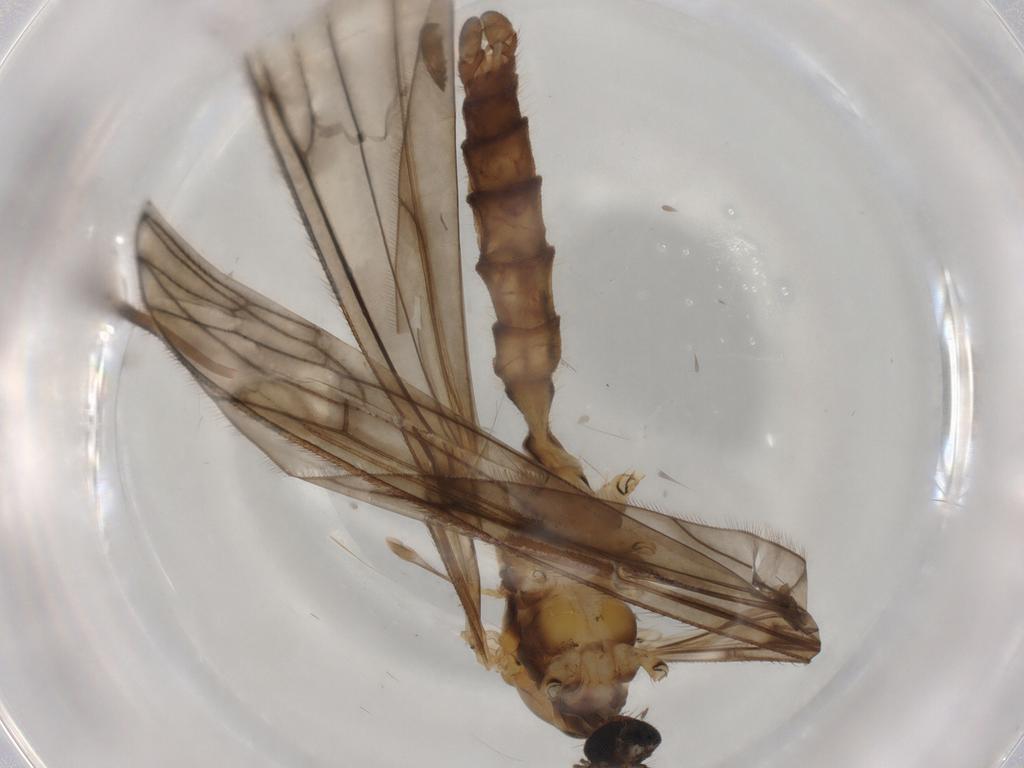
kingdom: Animalia
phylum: Arthropoda
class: Insecta
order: Diptera
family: Limoniidae
